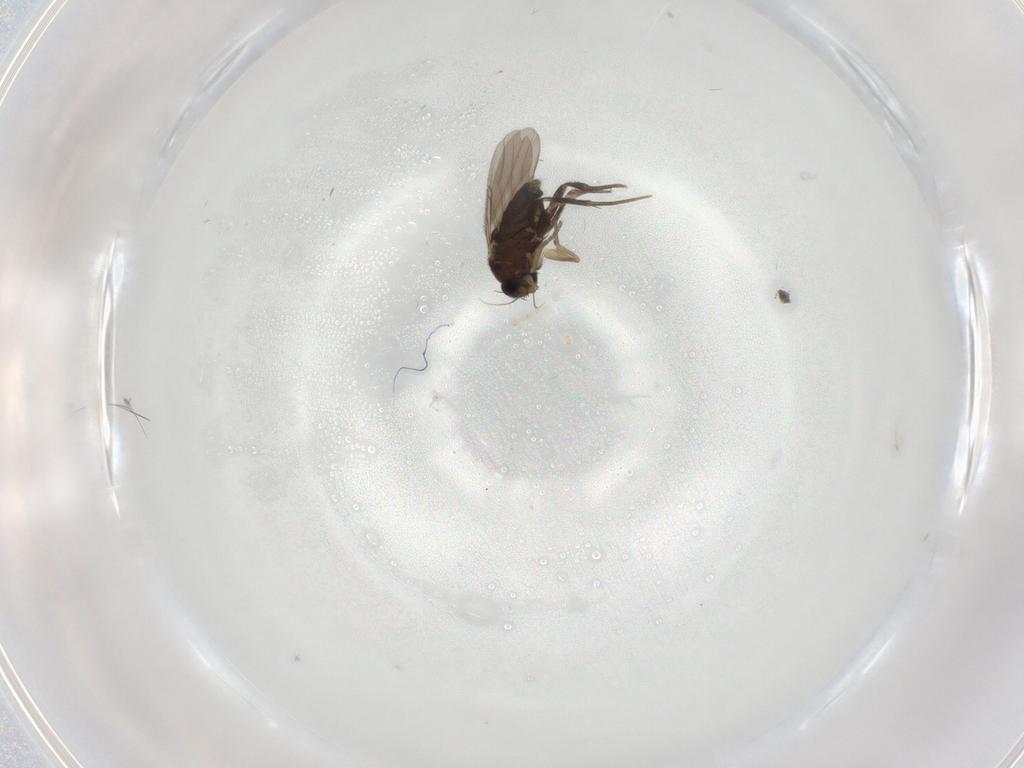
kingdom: Animalia
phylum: Arthropoda
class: Insecta
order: Diptera
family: Phoridae
